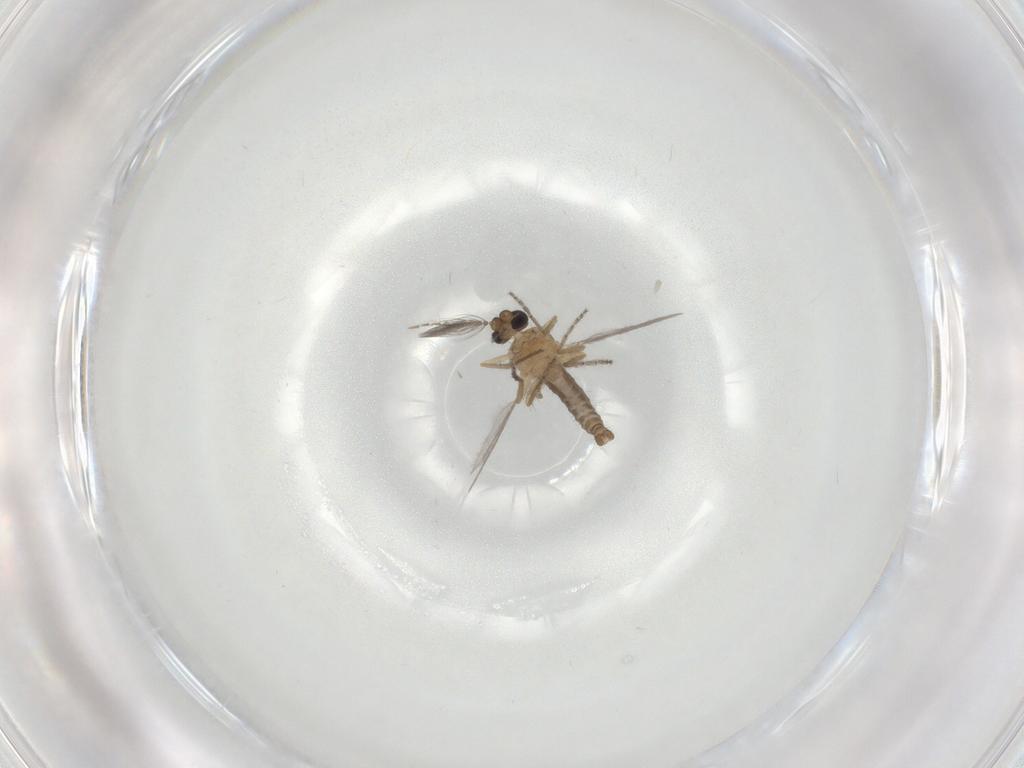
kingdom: Animalia
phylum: Arthropoda
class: Insecta
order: Diptera
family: Ceratopogonidae
